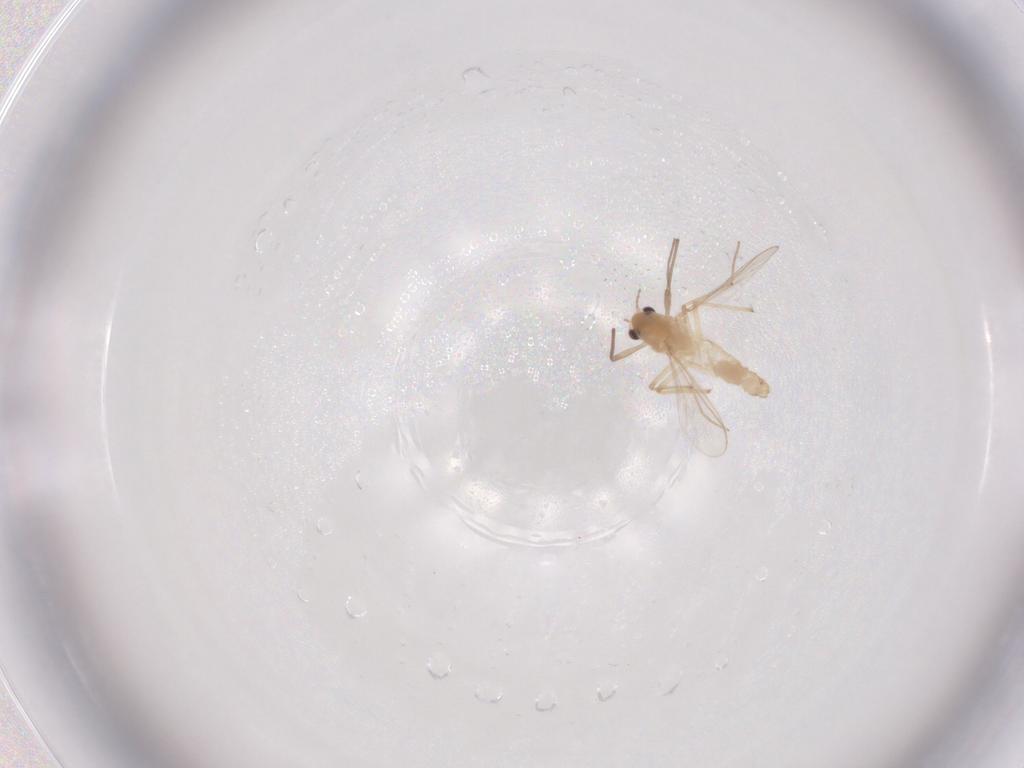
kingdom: Animalia
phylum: Arthropoda
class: Insecta
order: Diptera
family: Chironomidae
